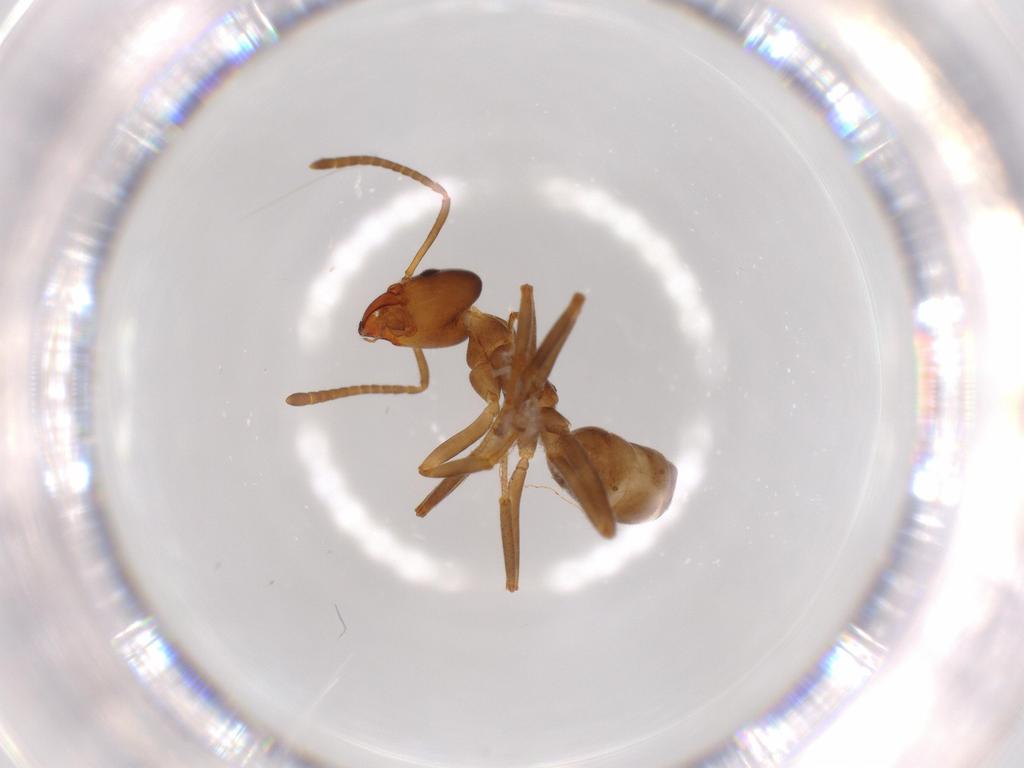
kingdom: Animalia
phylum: Arthropoda
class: Insecta
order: Hymenoptera
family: Formicidae
